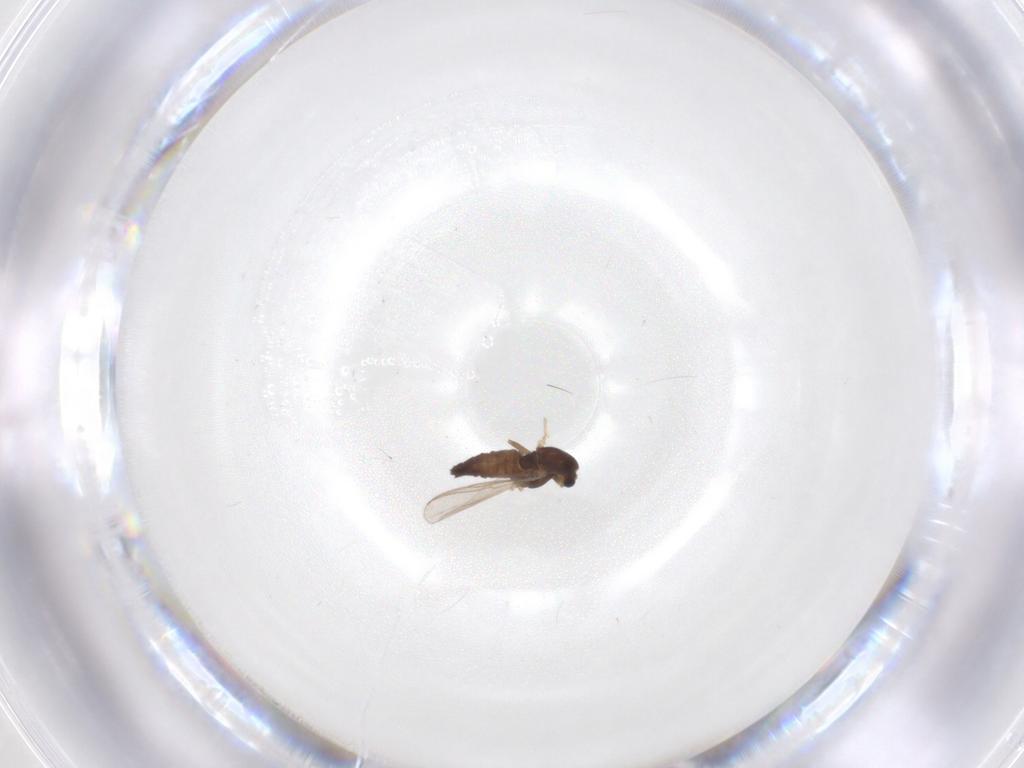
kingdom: Animalia
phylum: Arthropoda
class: Insecta
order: Diptera
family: Chironomidae
